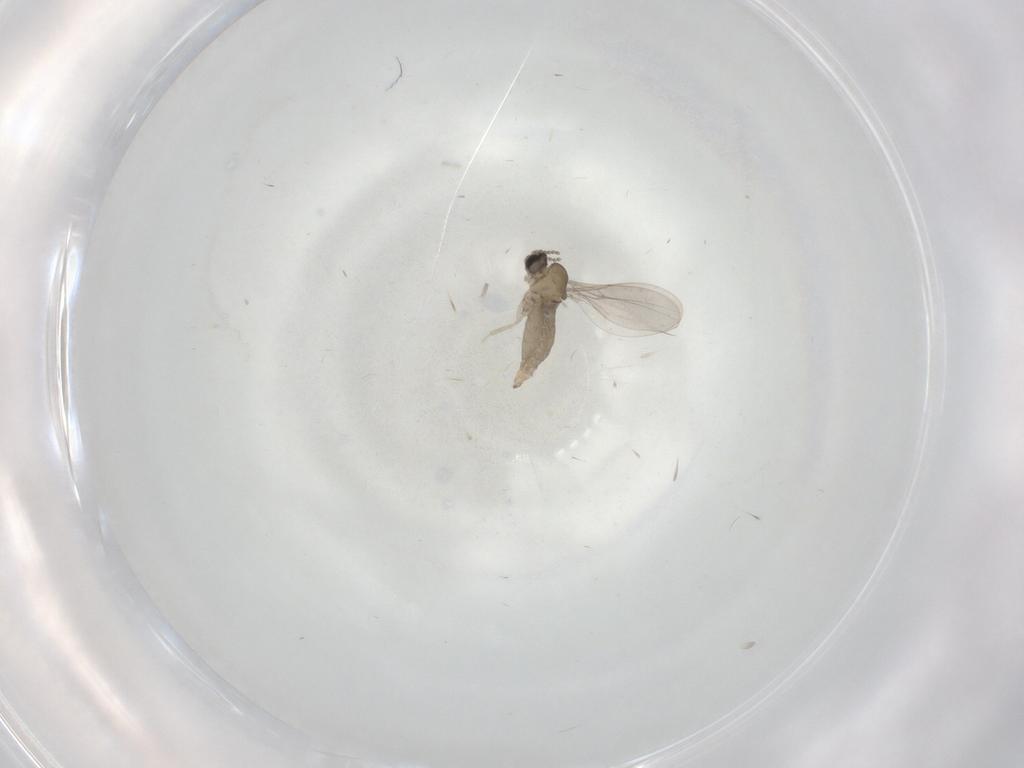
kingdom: Animalia
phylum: Arthropoda
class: Insecta
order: Diptera
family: Cecidomyiidae
